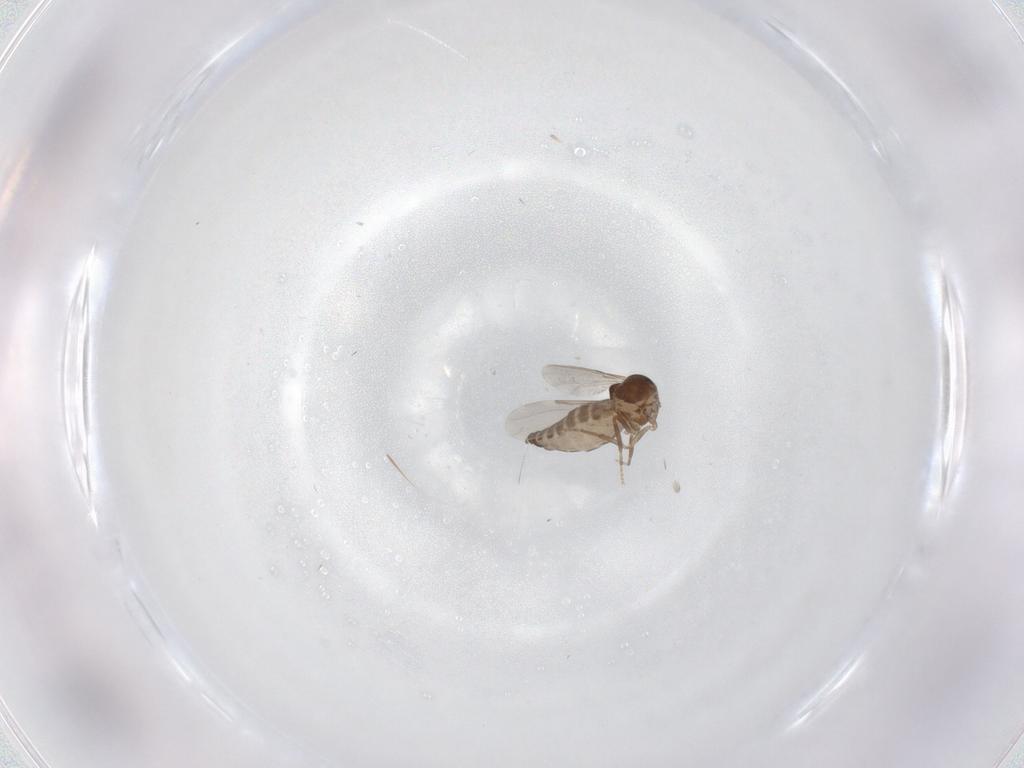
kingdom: Animalia
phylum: Arthropoda
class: Insecta
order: Diptera
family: Ceratopogonidae
